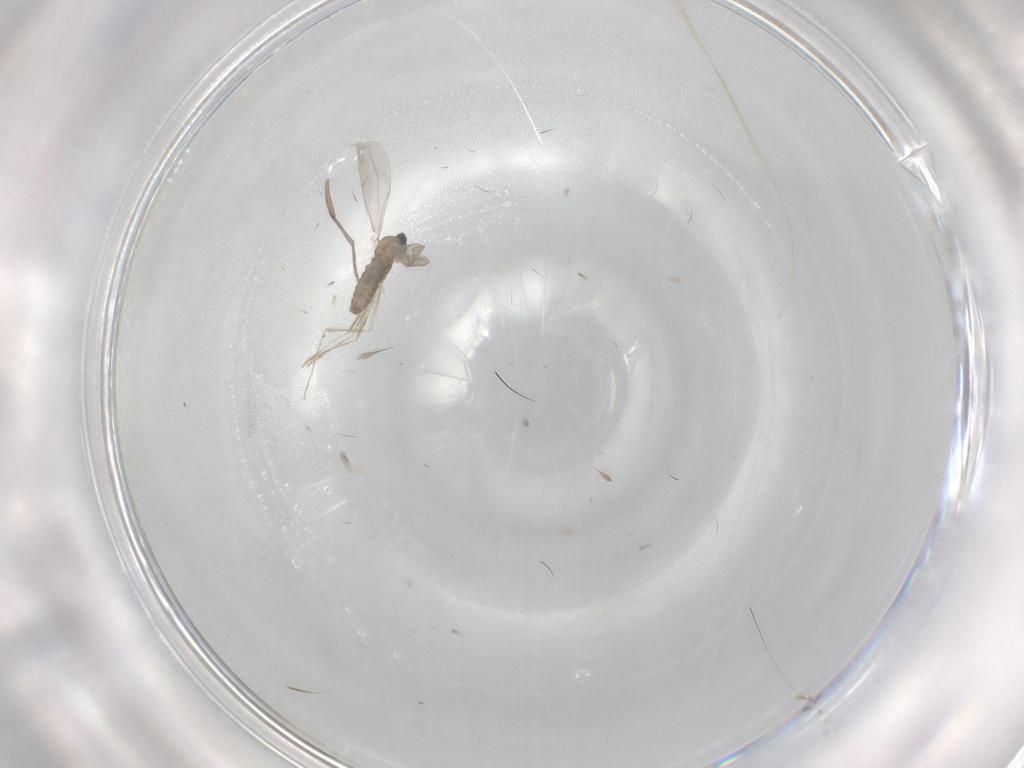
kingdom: Animalia
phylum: Arthropoda
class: Insecta
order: Diptera
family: Sciaridae
